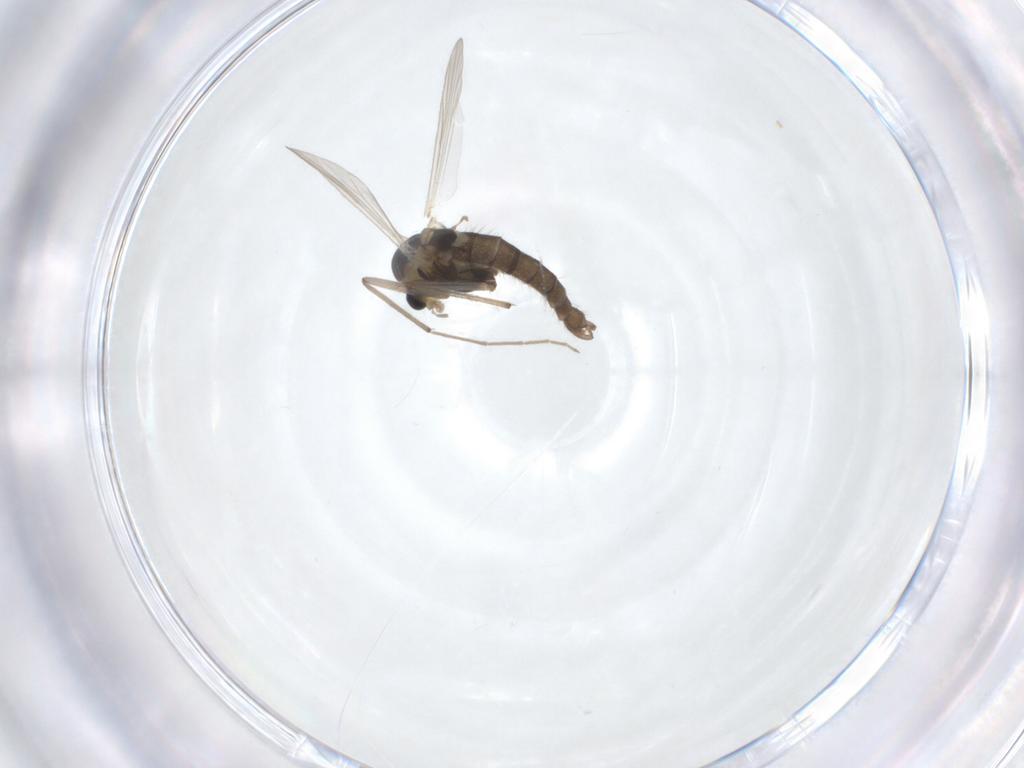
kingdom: Animalia
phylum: Arthropoda
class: Insecta
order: Diptera
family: Chironomidae
